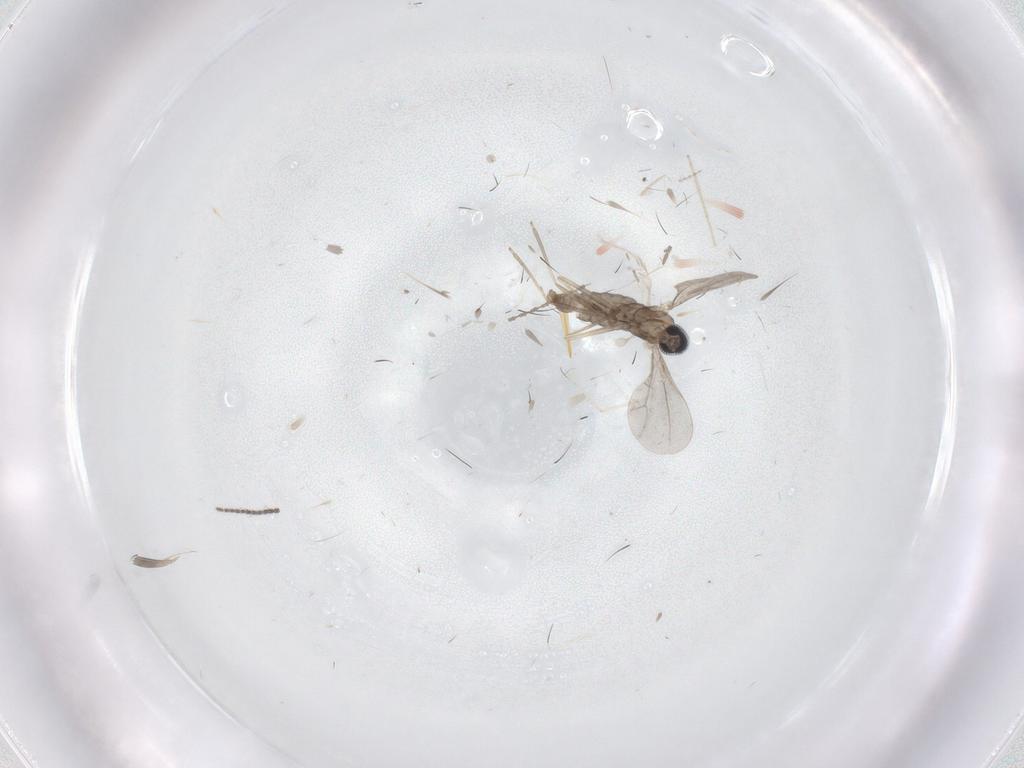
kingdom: Animalia
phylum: Arthropoda
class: Insecta
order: Diptera
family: Cecidomyiidae
